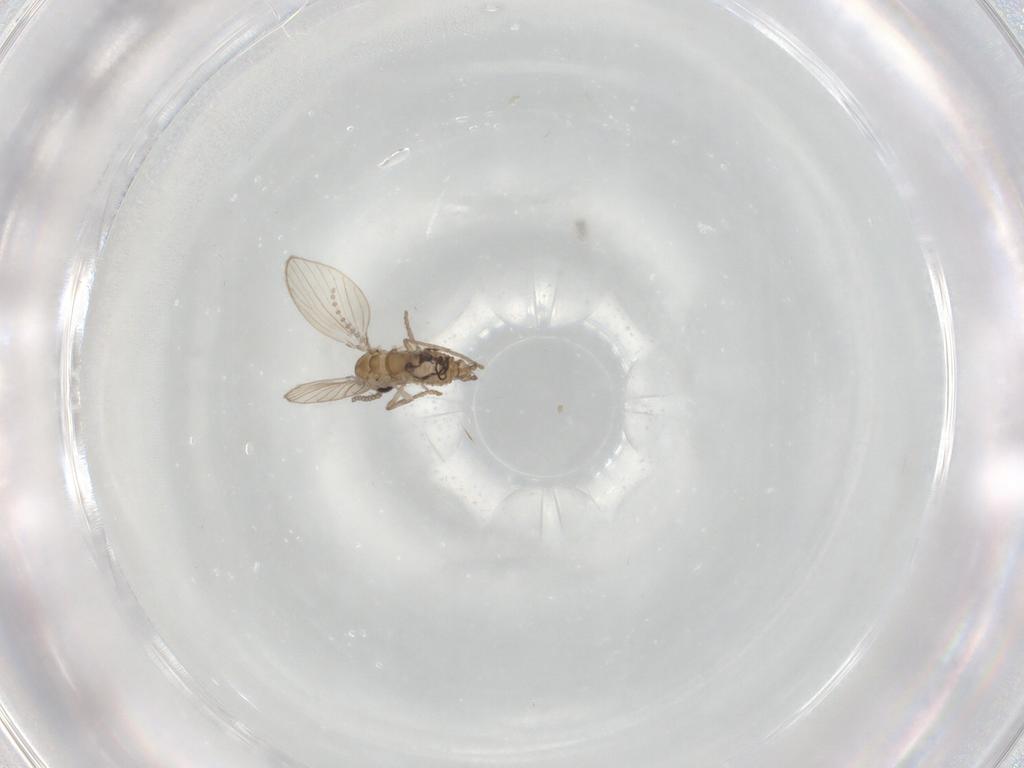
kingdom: Animalia
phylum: Arthropoda
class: Insecta
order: Diptera
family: Psychodidae
